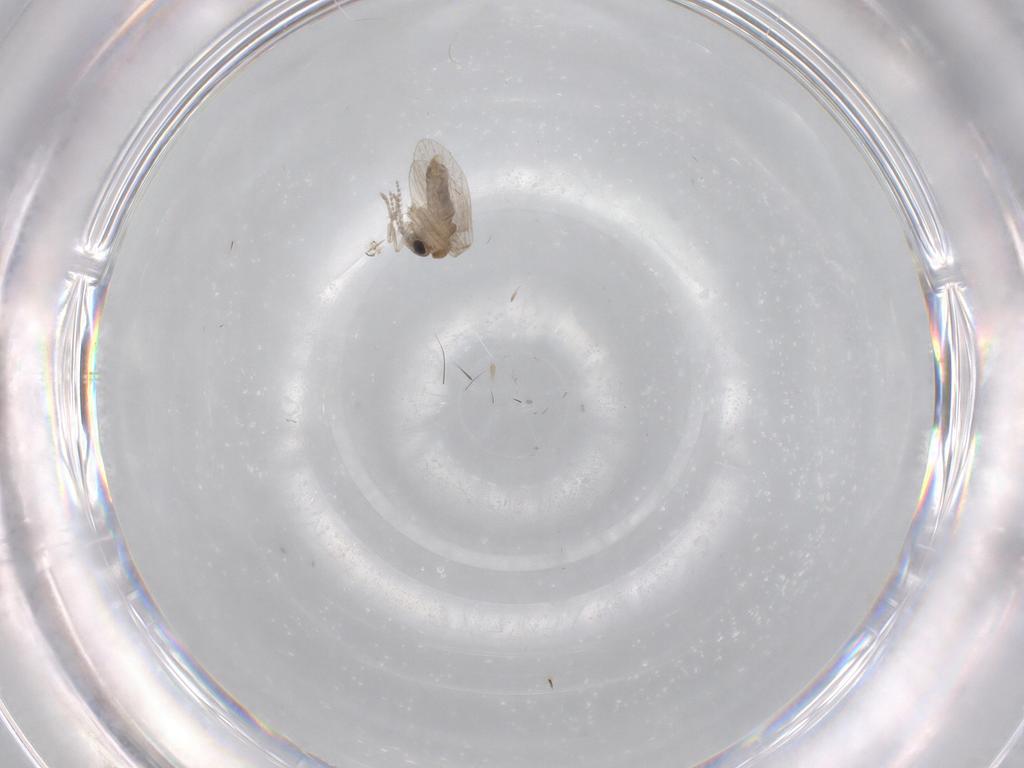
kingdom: Animalia
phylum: Arthropoda
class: Insecta
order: Diptera
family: Psychodidae
